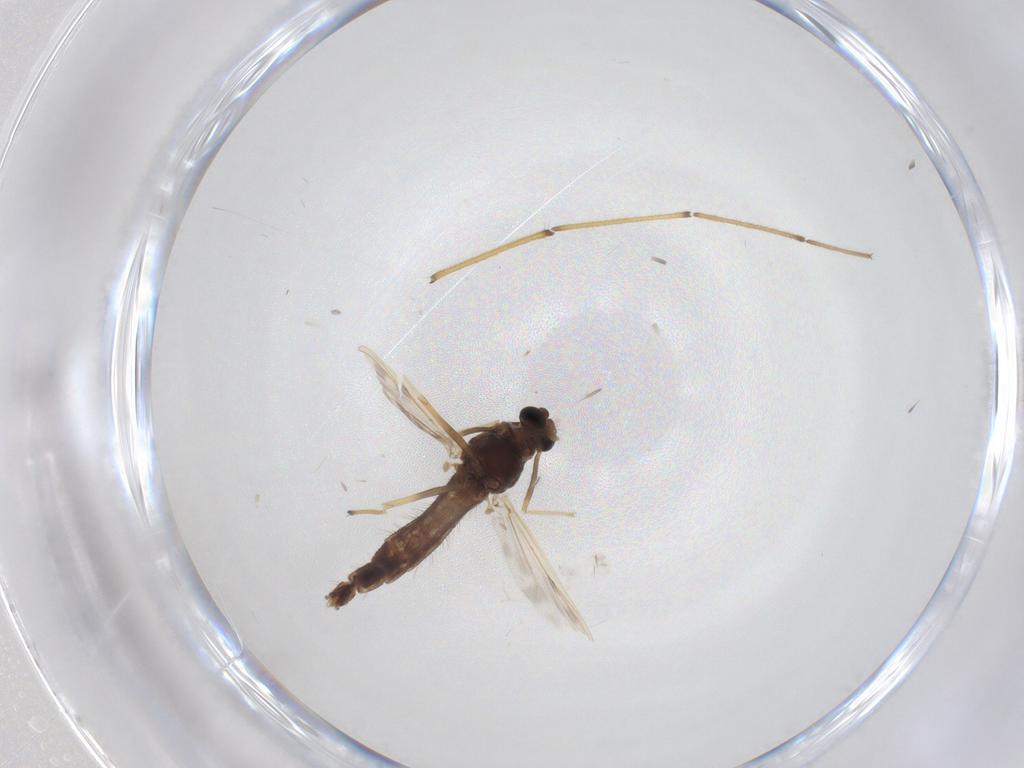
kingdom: Animalia
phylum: Arthropoda
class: Insecta
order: Diptera
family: Chironomidae
